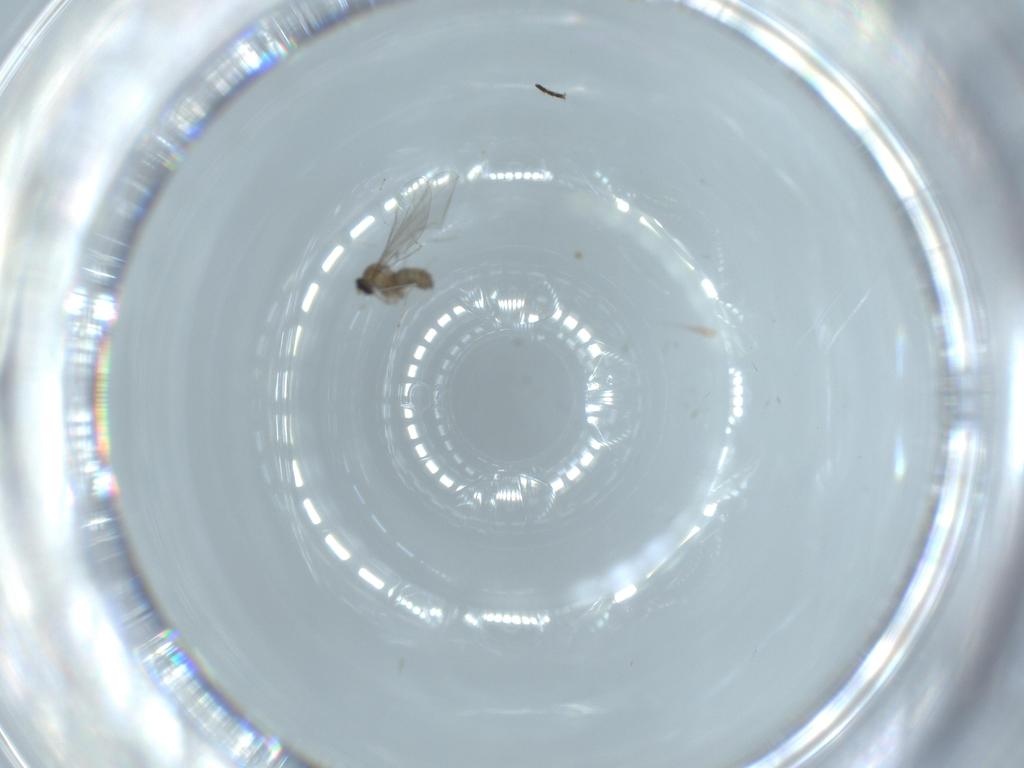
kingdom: Animalia
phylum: Arthropoda
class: Insecta
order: Diptera
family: Cecidomyiidae
